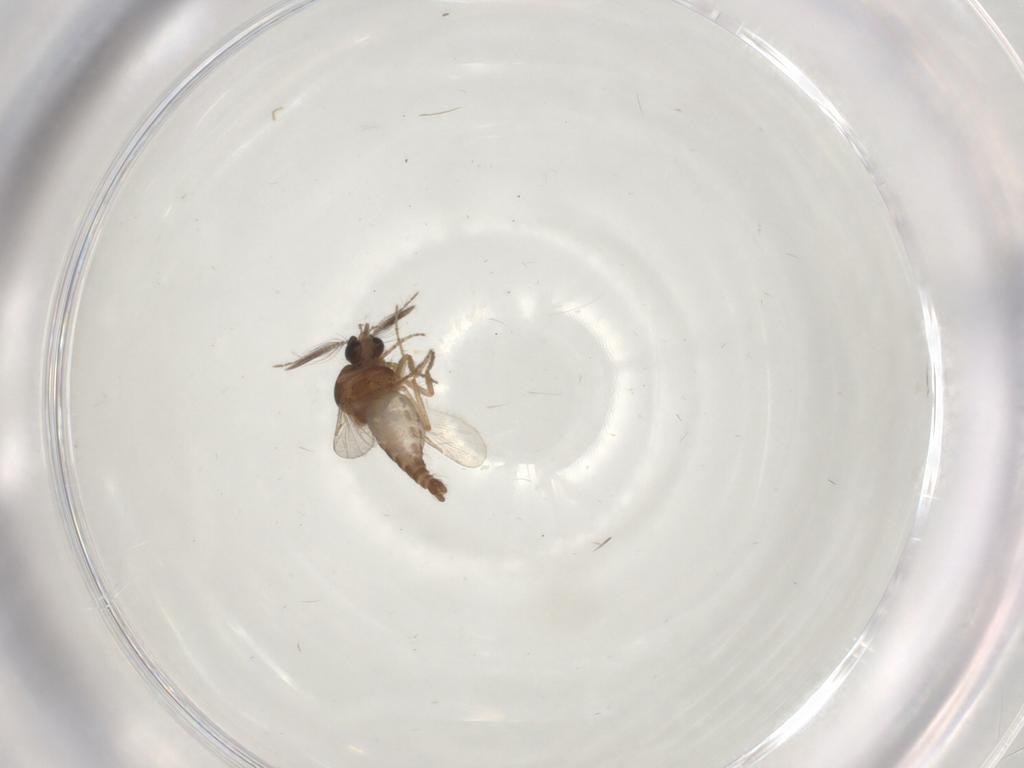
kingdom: Animalia
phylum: Arthropoda
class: Insecta
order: Diptera
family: Ceratopogonidae
